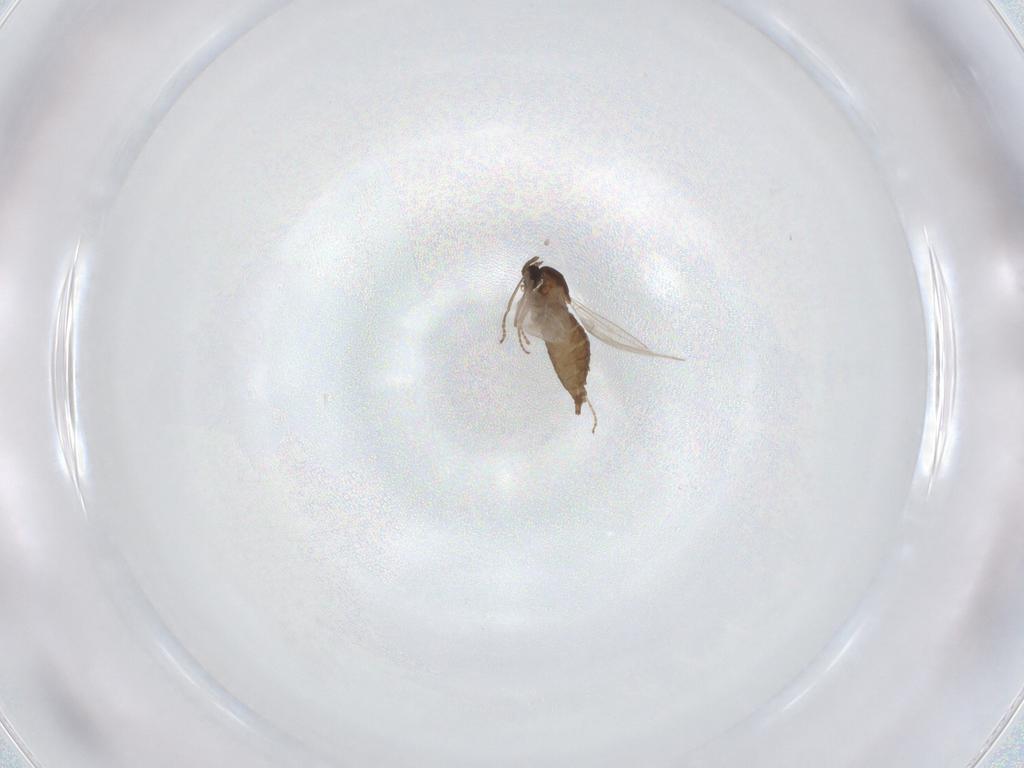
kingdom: Animalia
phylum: Arthropoda
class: Insecta
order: Diptera
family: Cecidomyiidae
